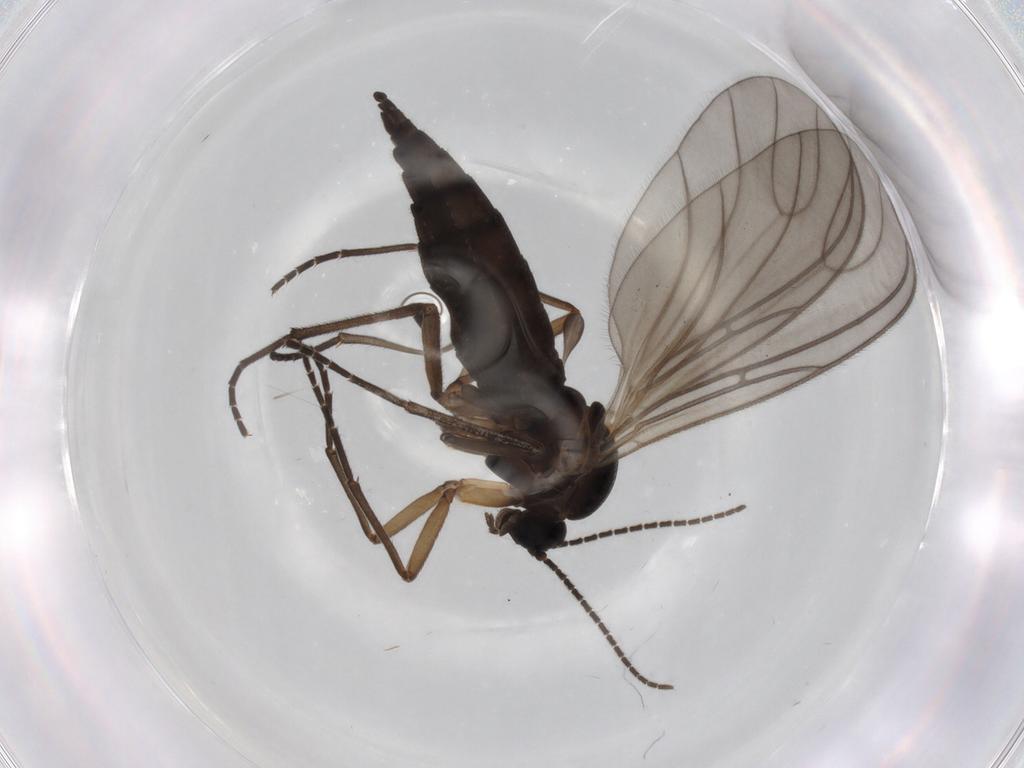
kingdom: Animalia
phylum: Arthropoda
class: Insecta
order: Diptera
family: Sciaridae
